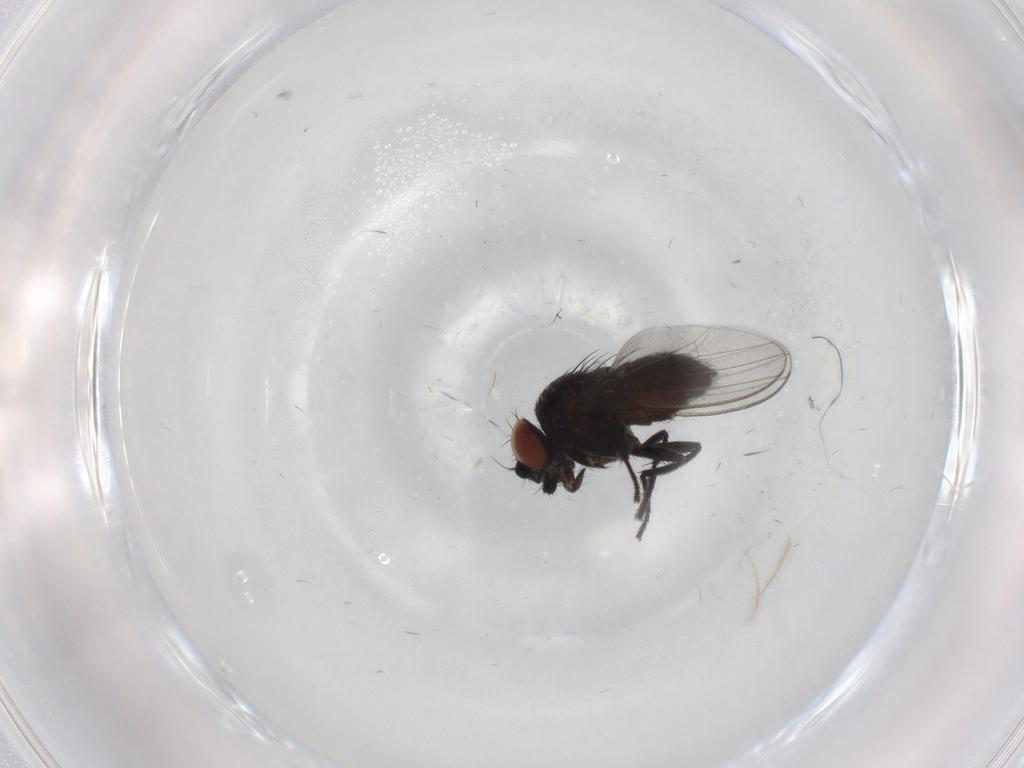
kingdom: Animalia
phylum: Arthropoda
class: Insecta
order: Diptera
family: Milichiidae
